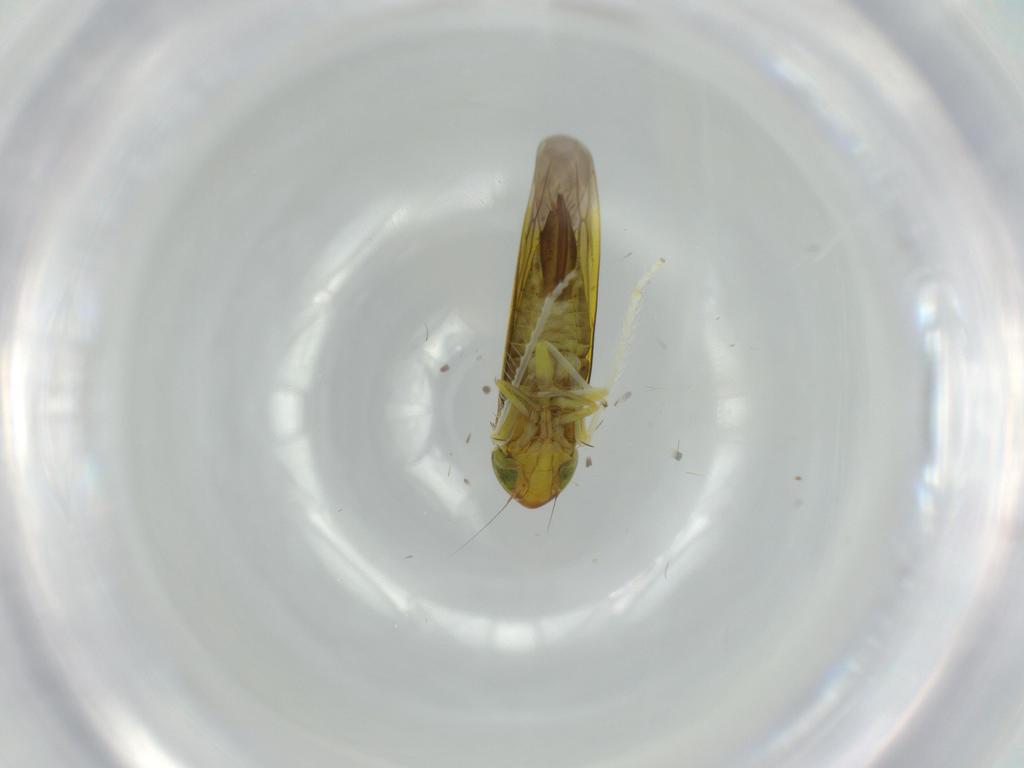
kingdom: Animalia
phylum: Arthropoda
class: Insecta
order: Hemiptera
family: Cicadellidae
